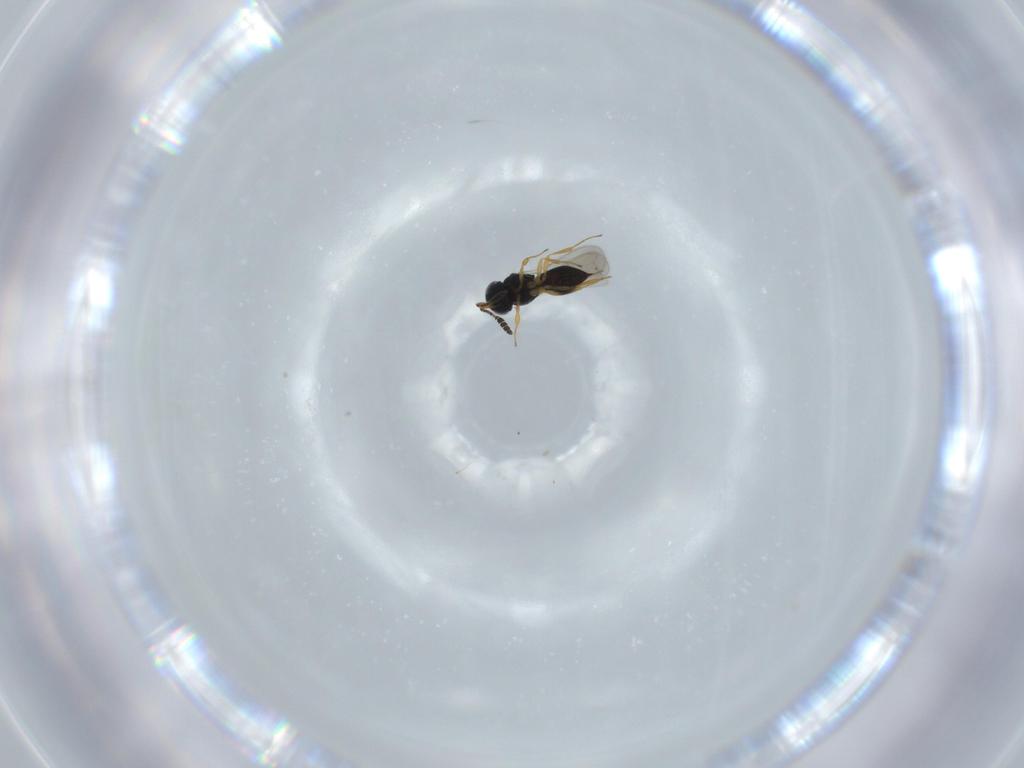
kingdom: Animalia
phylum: Arthropoda
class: Insecta
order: Hymenoptera
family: Scelionidae
